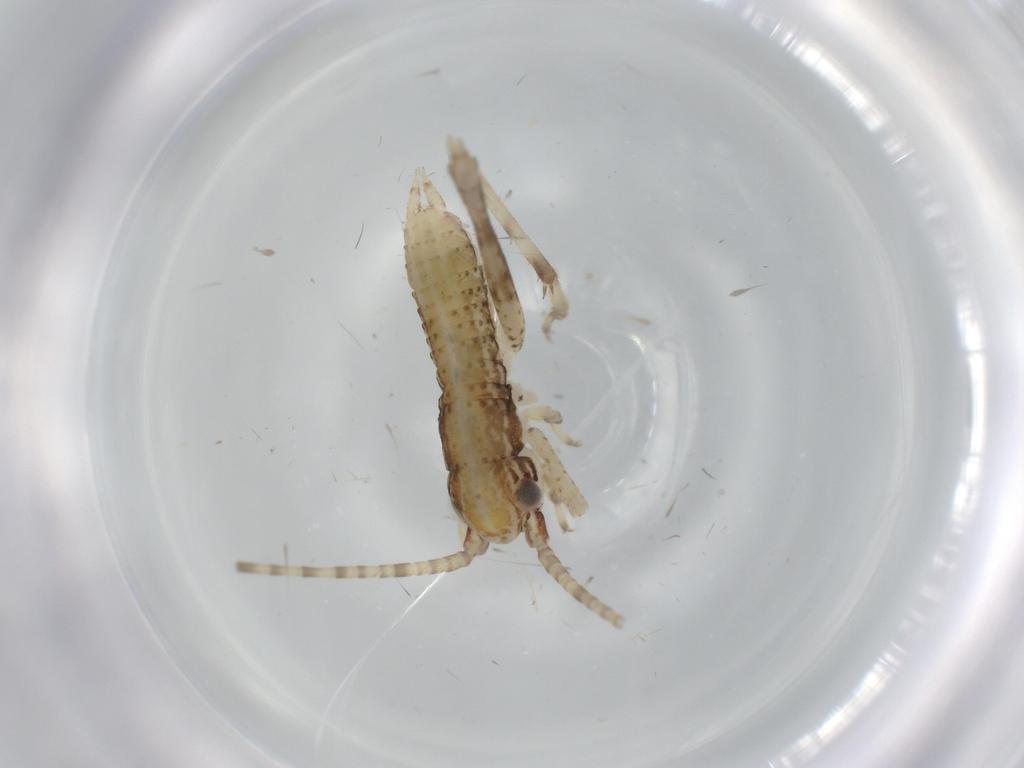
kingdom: Animalia
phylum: Arthropoda
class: Insecta
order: Orthoptera
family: Gryllidae
